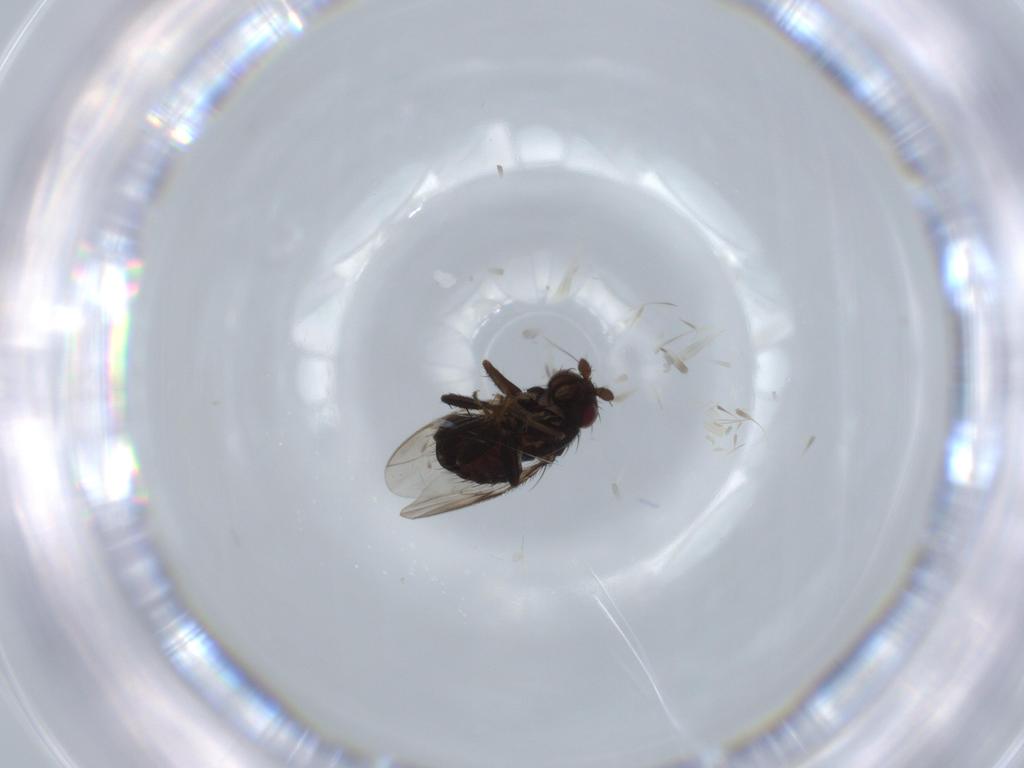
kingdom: Animalia
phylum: Arthropoda
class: Insecta
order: Diptera
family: Sphaeroceridae
